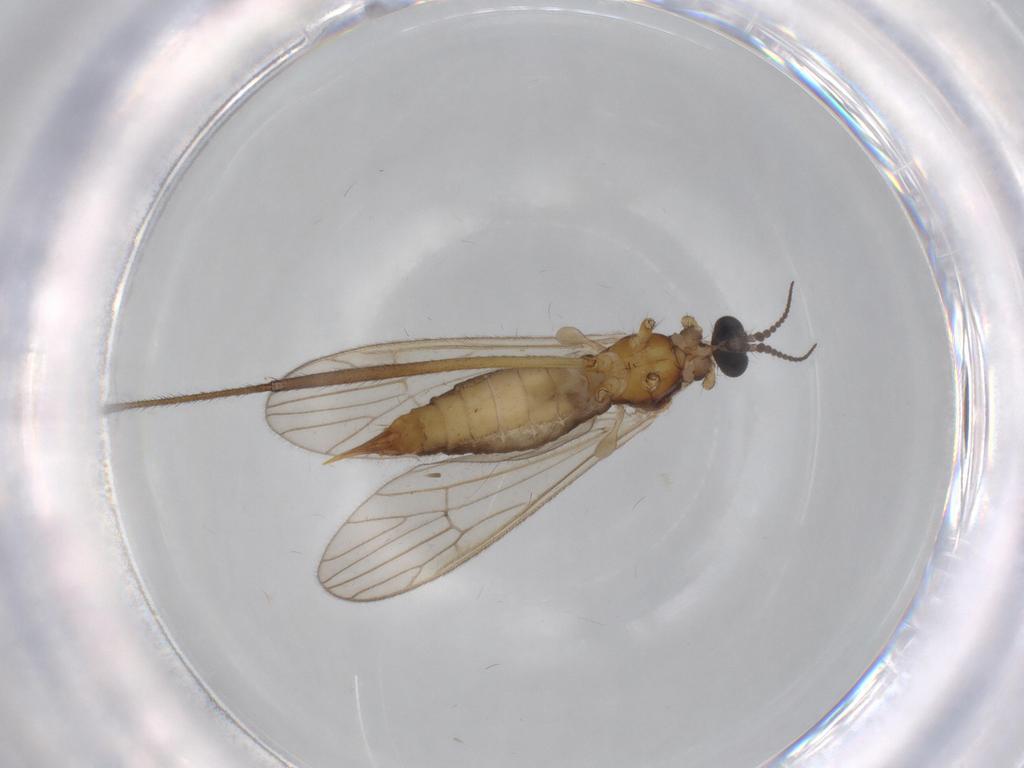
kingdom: Animalia
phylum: Arthropoda
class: Insecta
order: Diptera
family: Agromyzidae
